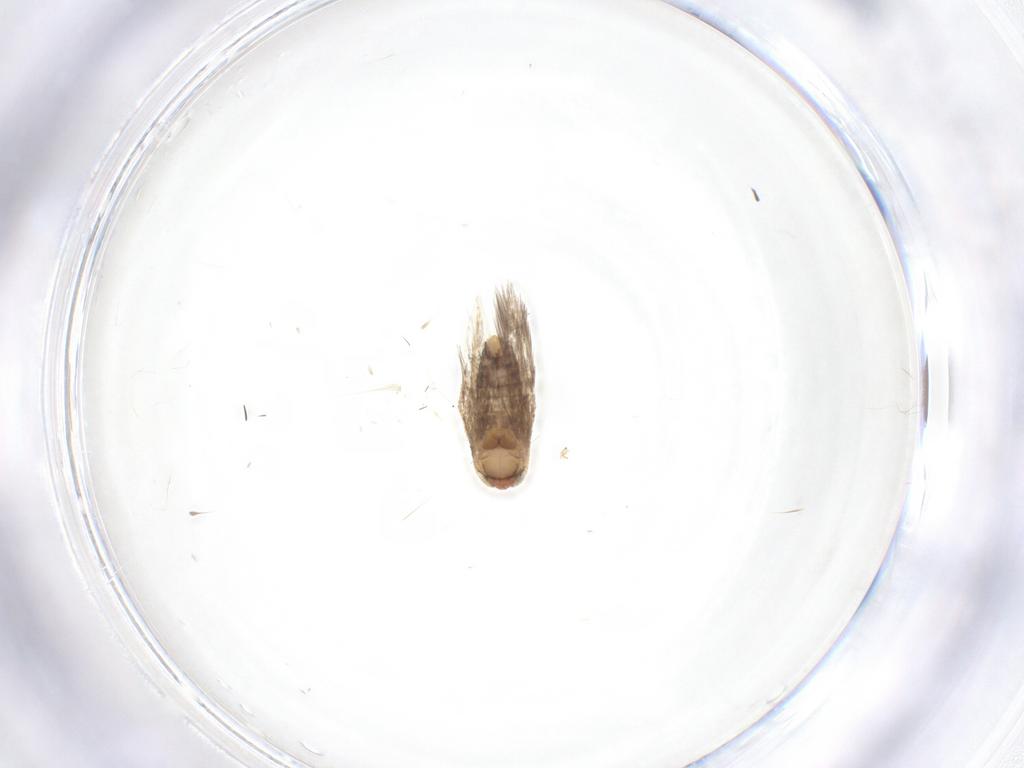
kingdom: Animalia
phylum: Arthropoda
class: Insecta
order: Lepidoptera
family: Nepticulidae
